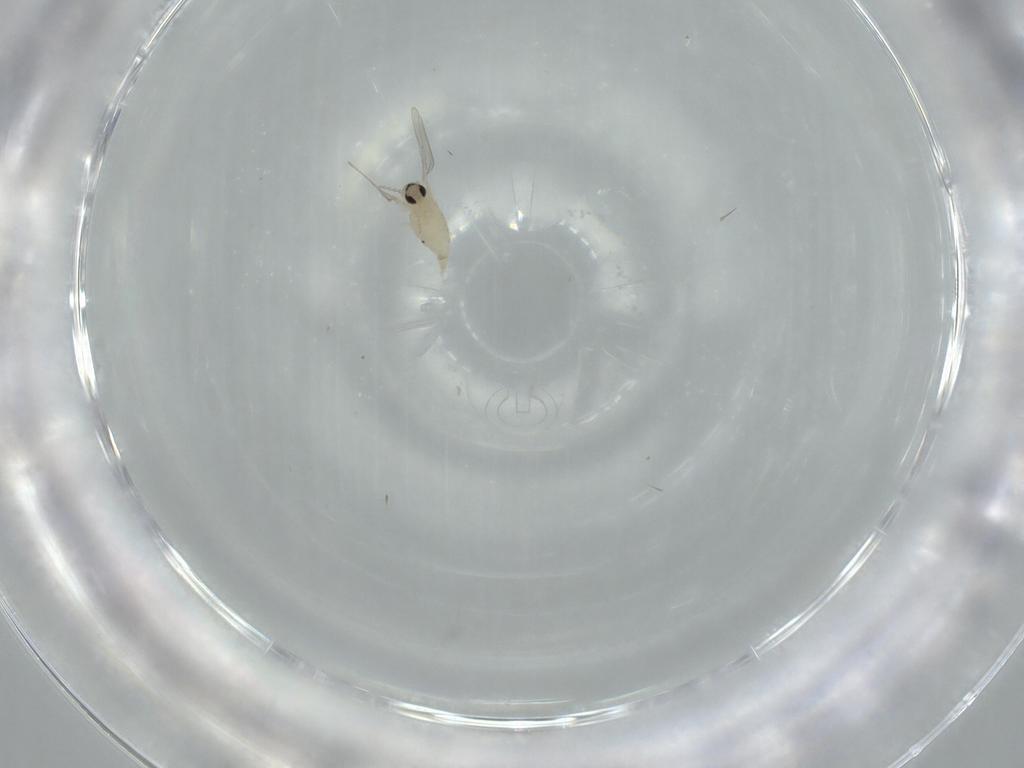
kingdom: Animalia
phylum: Arthropoda
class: Insecta
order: Diptera
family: Cecidomyiidae
